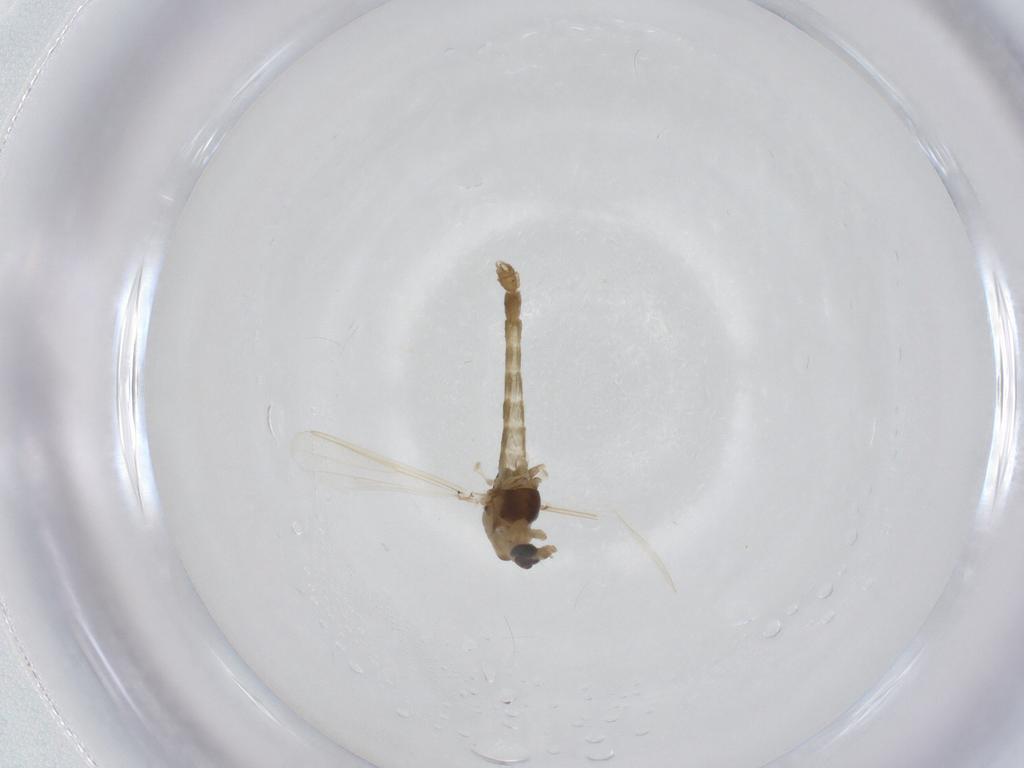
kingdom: Animalia
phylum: Arthropoda
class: Insecta
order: Diptera
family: Chironomidae
